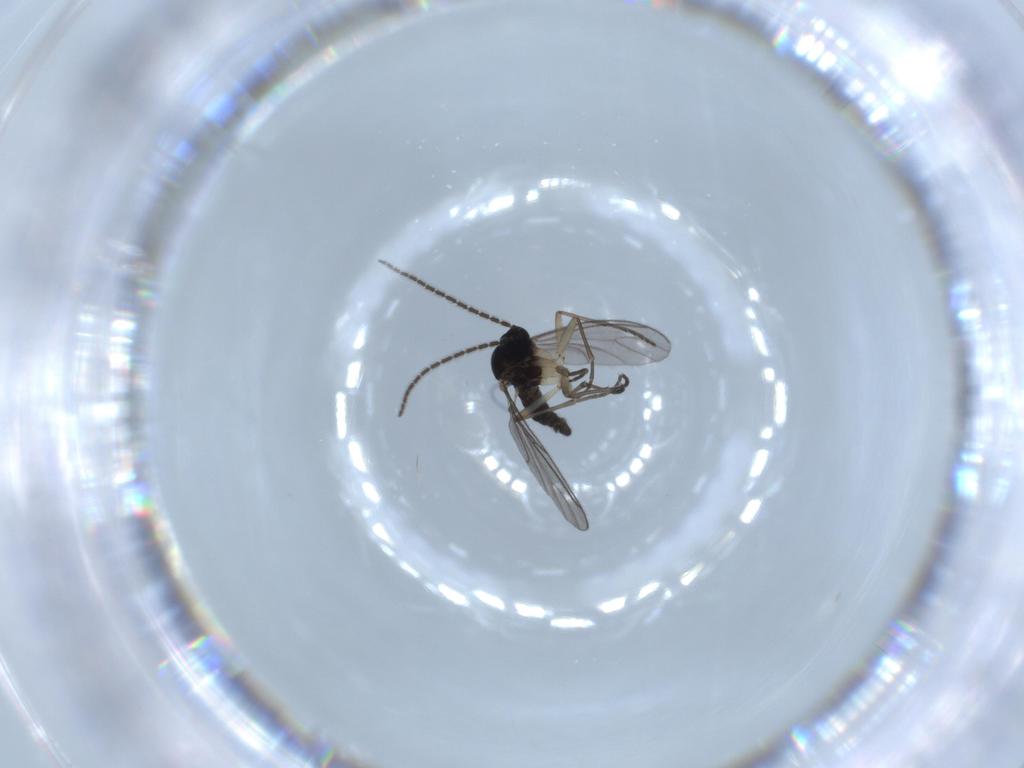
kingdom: Animalia
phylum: Arthropoda
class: Insecta
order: Diptera
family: Sciaridae
